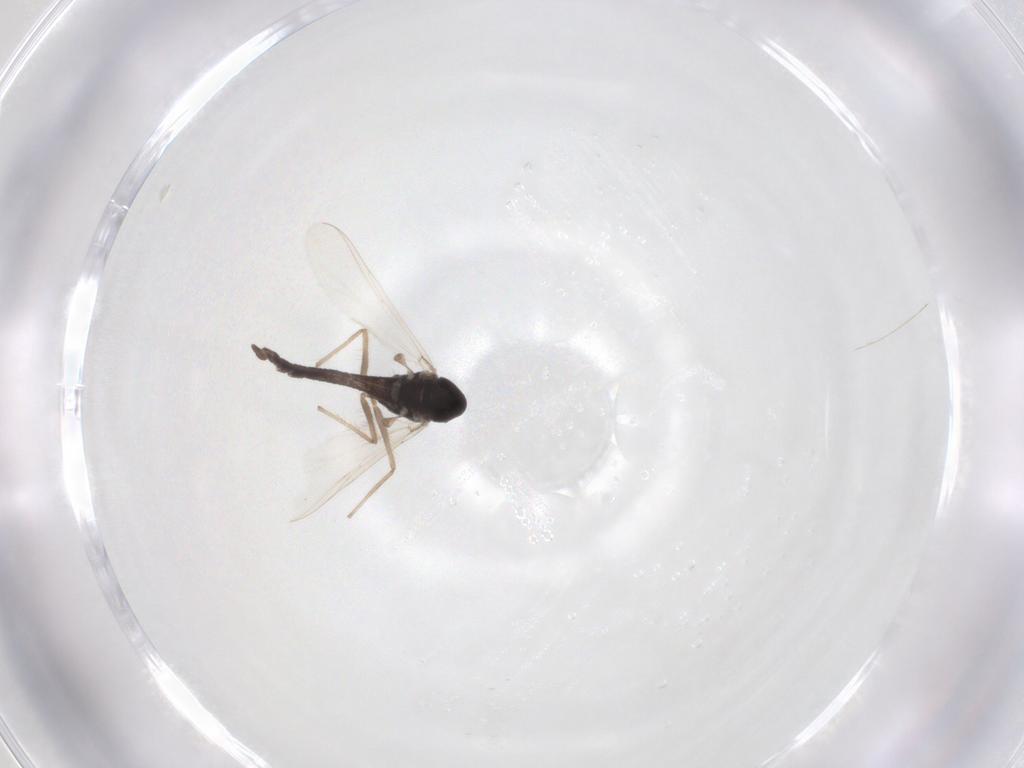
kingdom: Animalia
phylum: Arthropoda
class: Insecta
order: Diptera
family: Chironomidae
